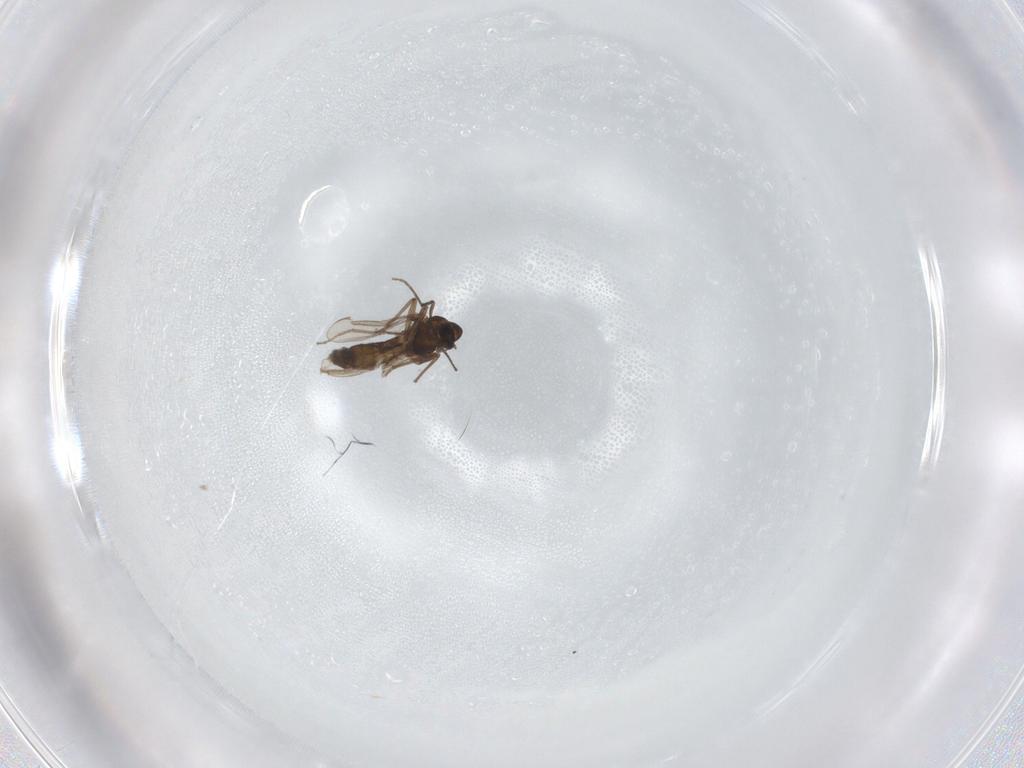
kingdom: Animalia
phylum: Arthropoda
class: Insecta
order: Diptera
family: Chironomidae
